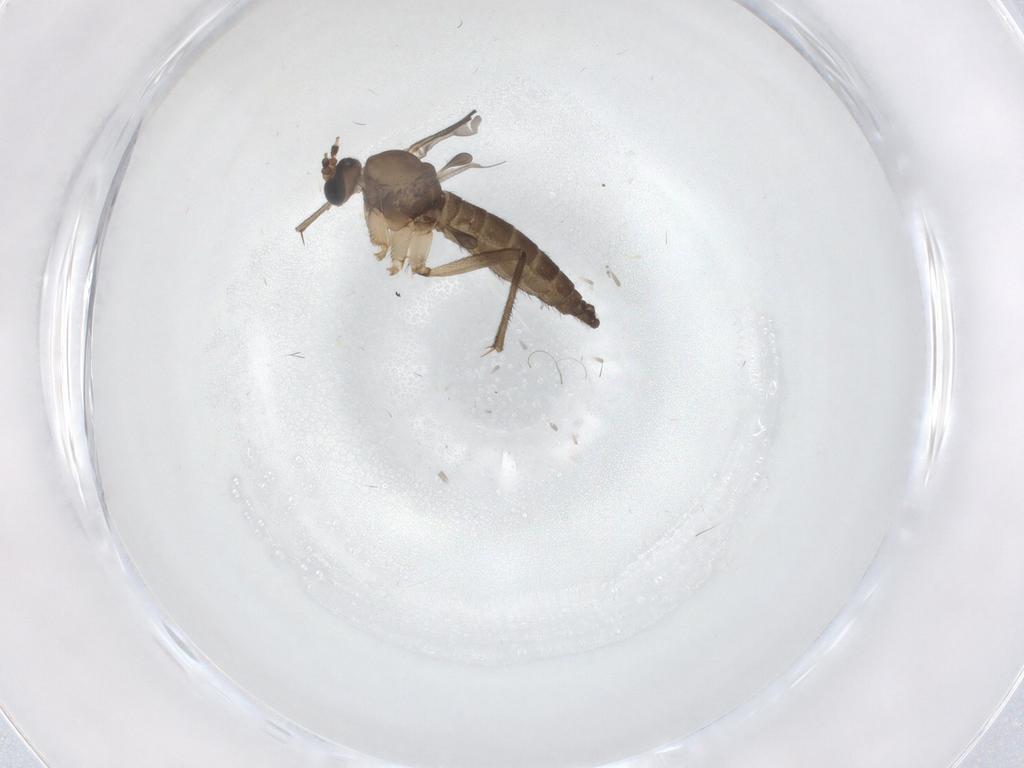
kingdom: Animalia
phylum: Arthropoda
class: Insecta
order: Diptera
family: Sciaridae
